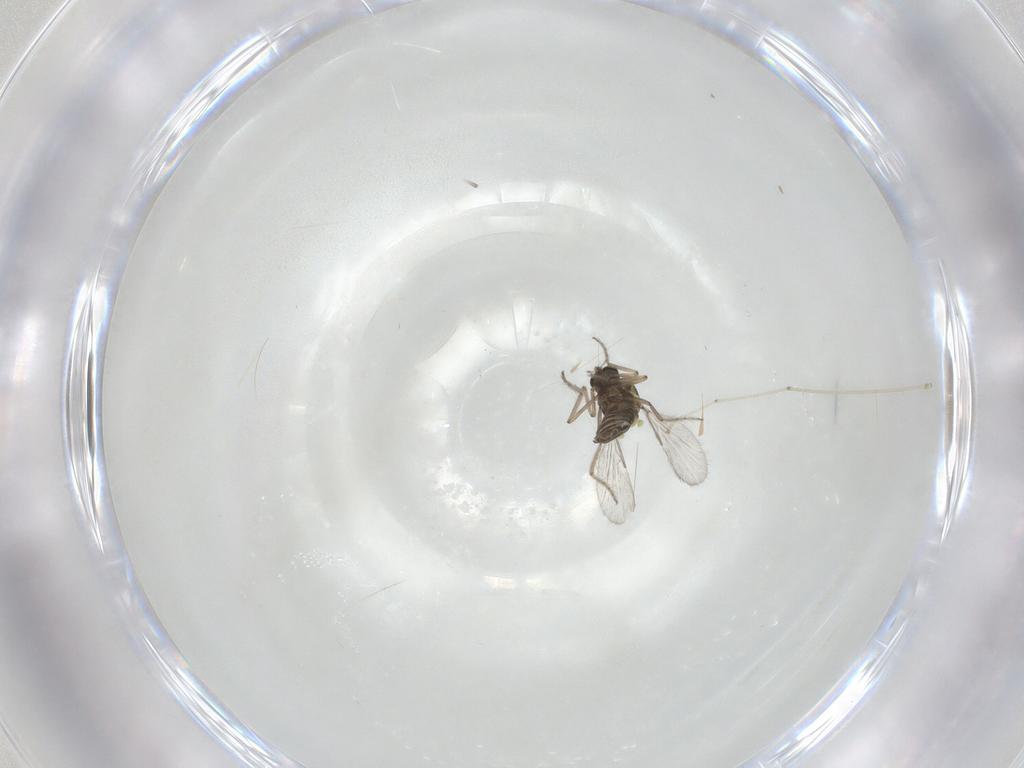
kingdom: Animalia
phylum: Arthropoda
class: Insecta
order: Diptera
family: Ceratopogonidae
